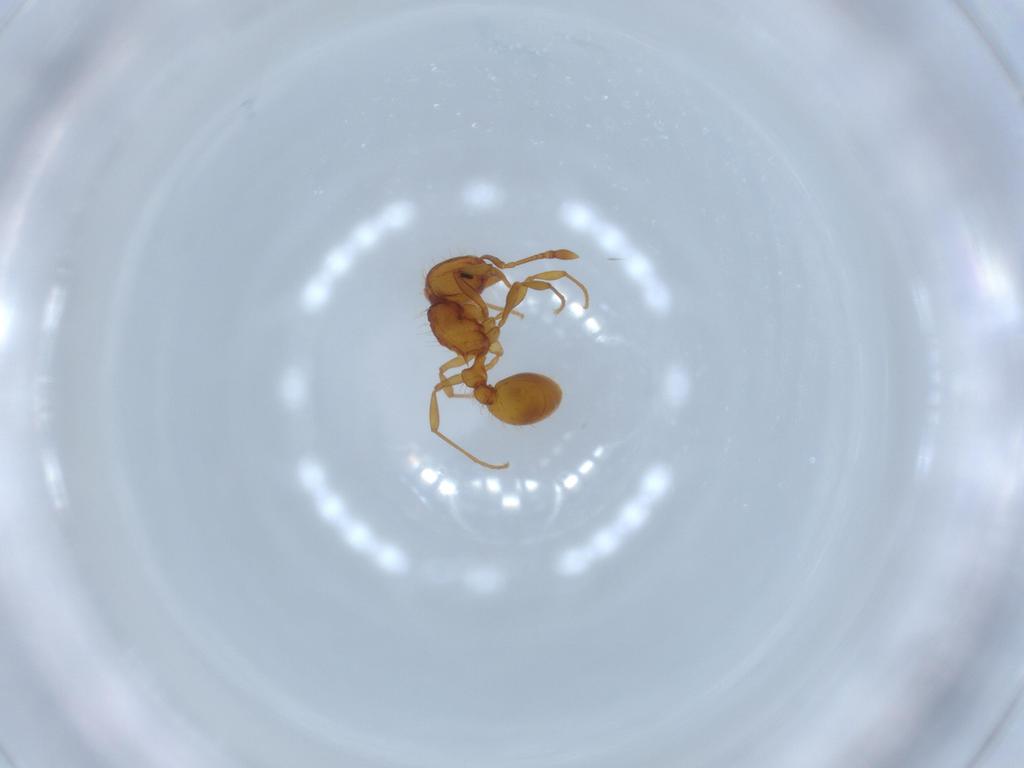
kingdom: Animalia
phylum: Arthropoda
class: Insecta
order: Hymenoptera
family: Formicidae
